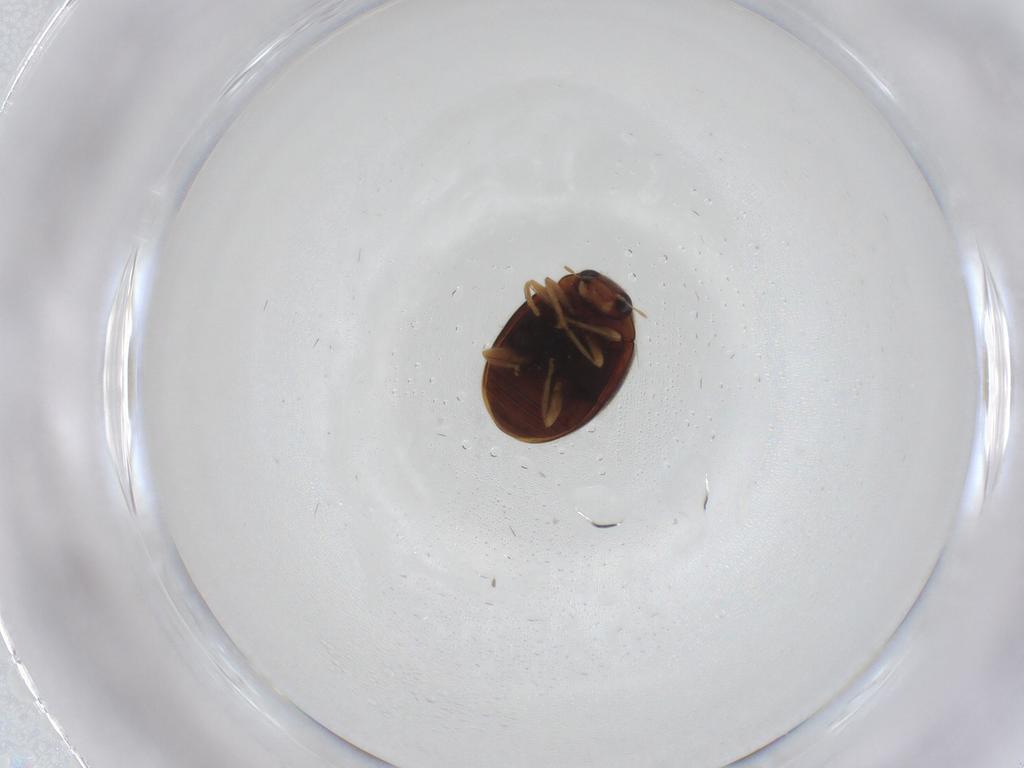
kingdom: Animalia
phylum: Arthropoda
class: Insecta
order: Coleoptera
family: Coccinellidae
